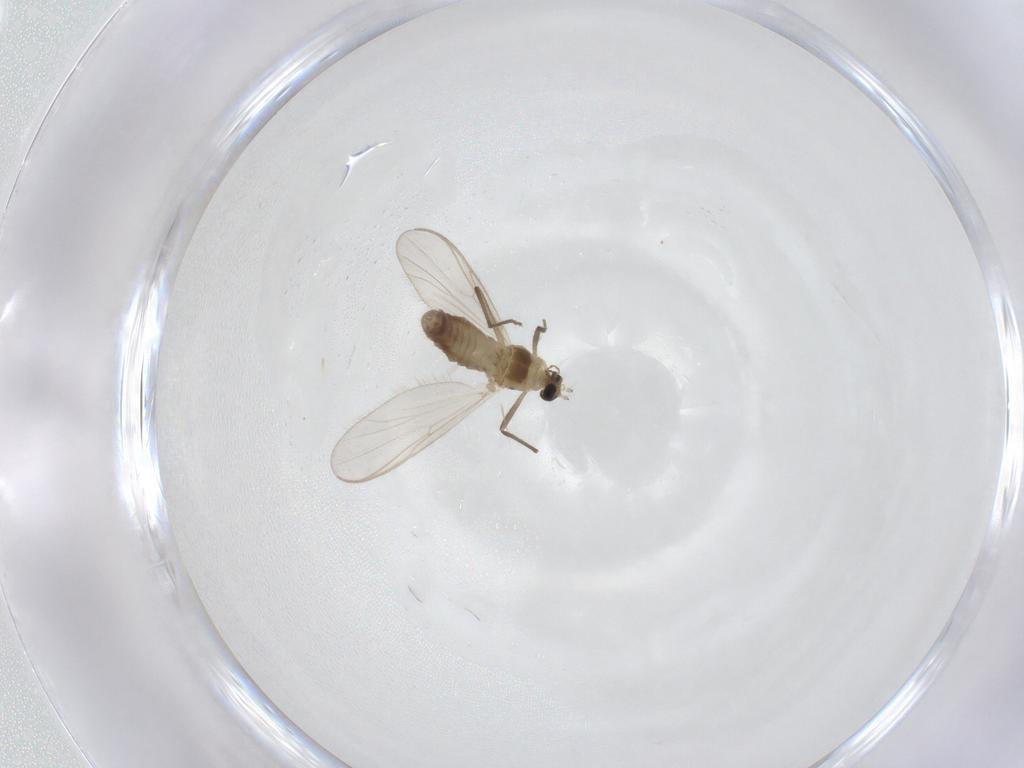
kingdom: Animalia
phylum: Arthropoda
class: Insecta
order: Diptera
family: Chironomidae
